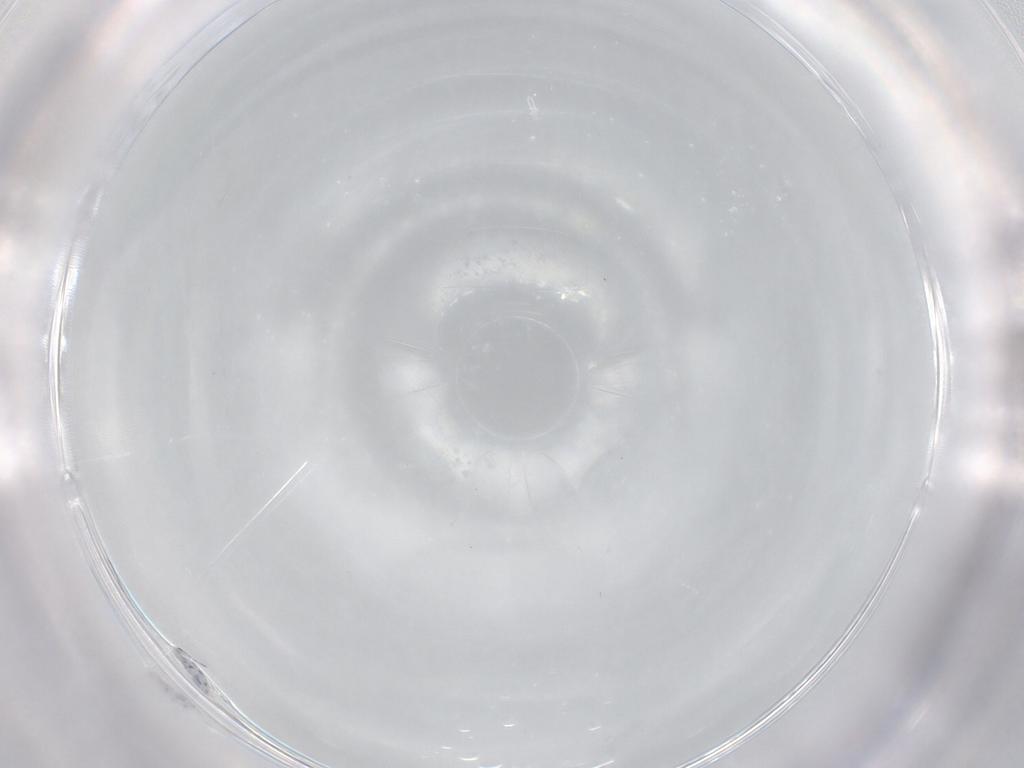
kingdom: Animalia
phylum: Arthropoda
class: Collembola
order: Entomobryomorpha
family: Entomobryidae
